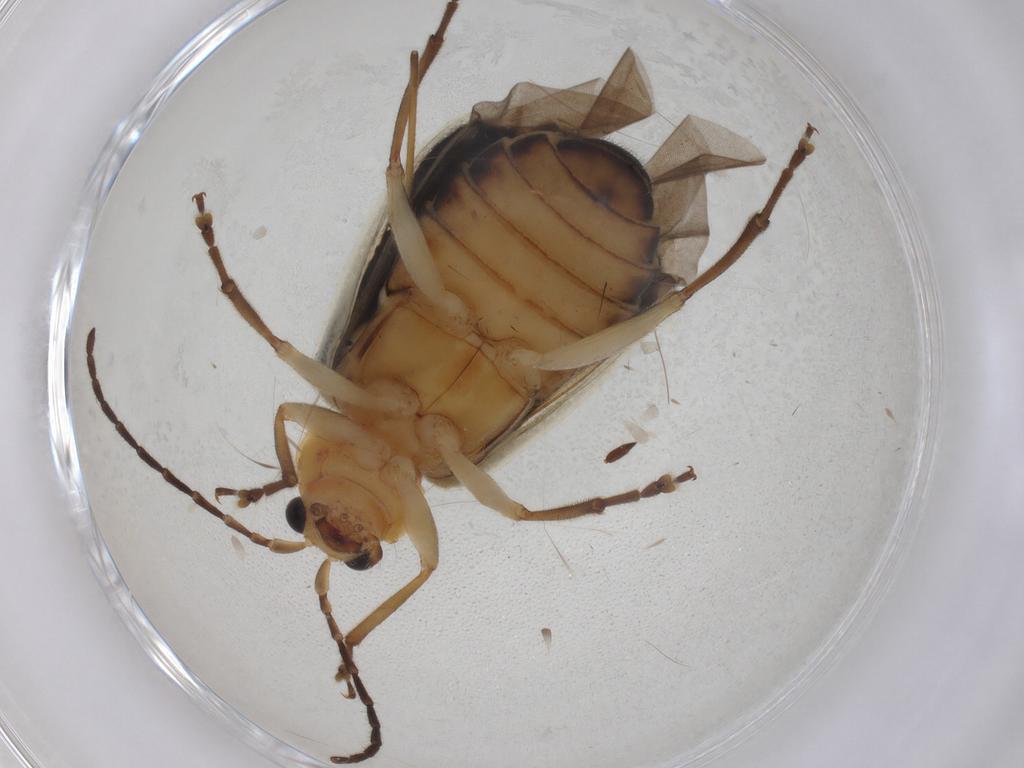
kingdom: Animalia
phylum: Arthropoda
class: Insecta
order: Coleoptera
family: Chrysomelidae
